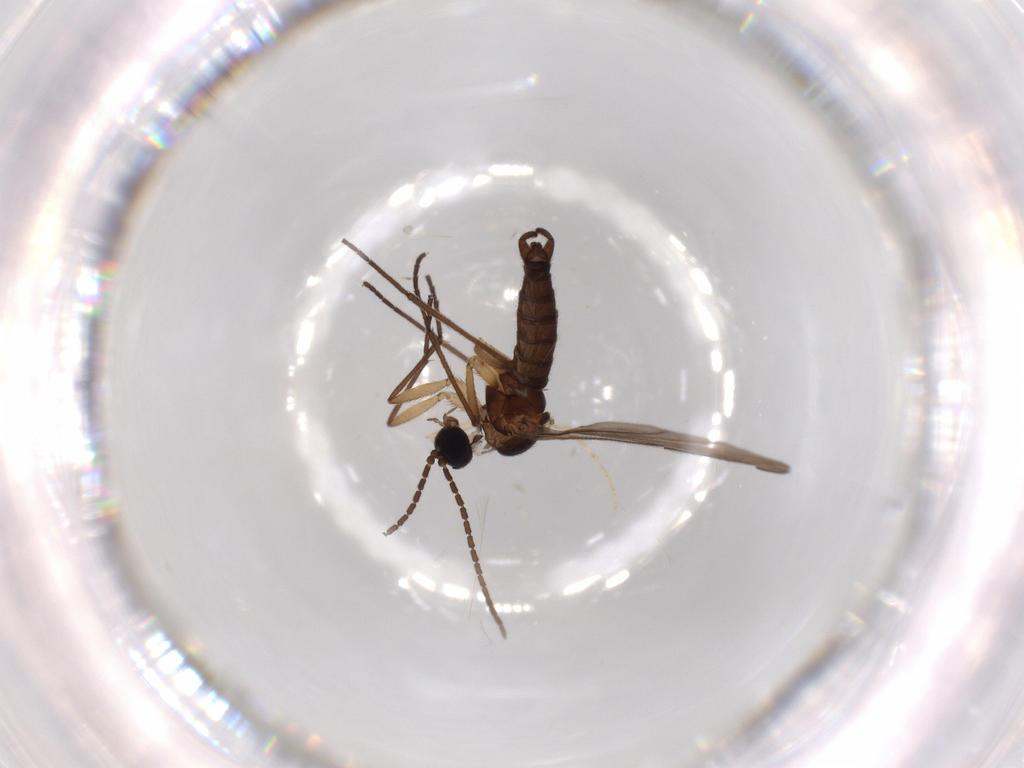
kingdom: Animalia
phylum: Arthropoda
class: Insecta
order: Diptera
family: Sciaridae
